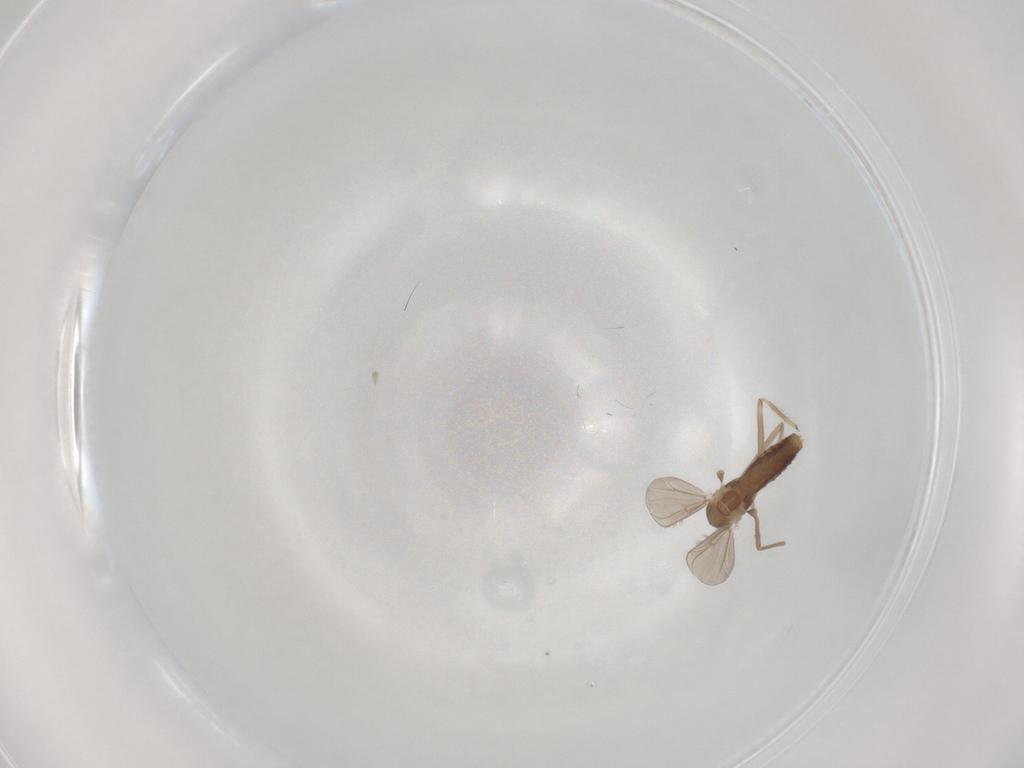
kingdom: Animalia
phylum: Arthropoda
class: Insecta
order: Diptera
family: Chironomidae
